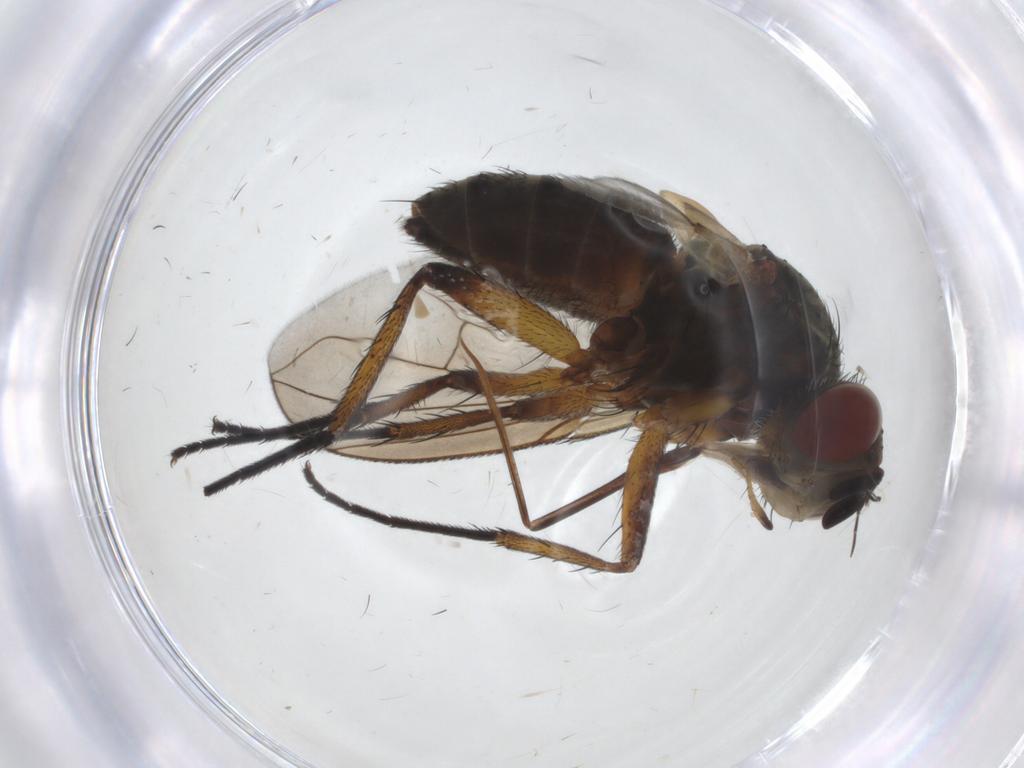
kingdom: Animalia
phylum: Arthropoda
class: Insecta
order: Diptera
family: Tachinidae
